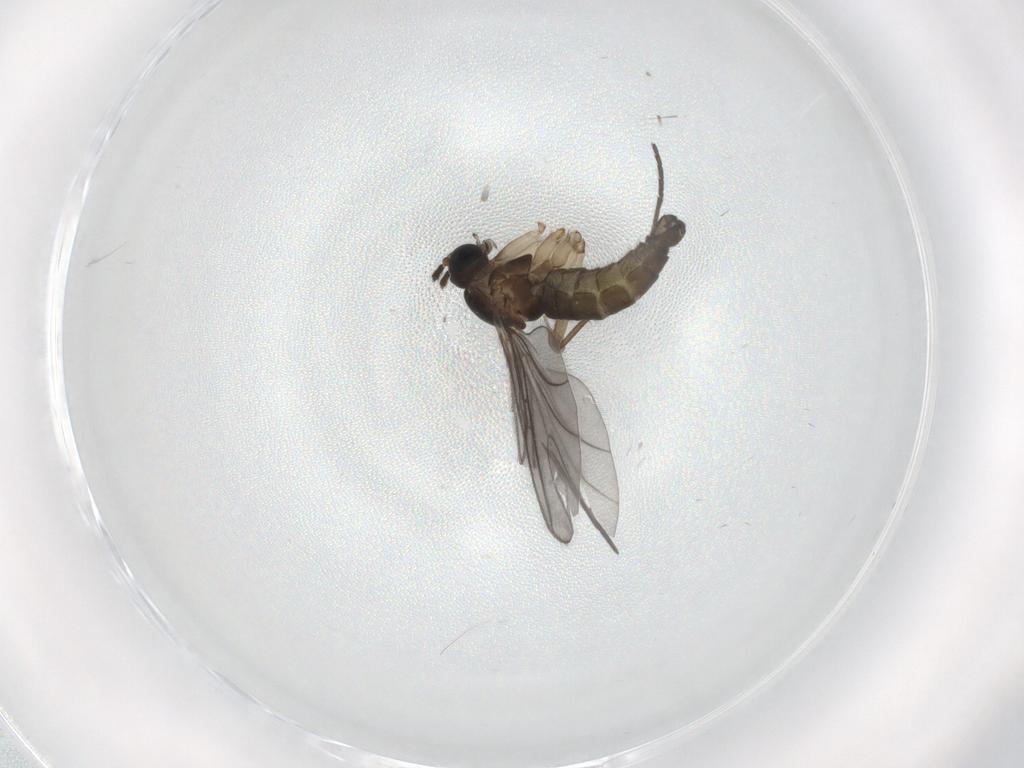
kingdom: Animalia
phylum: Arthropoda
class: Insecta
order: Diptera
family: Sciaridae
